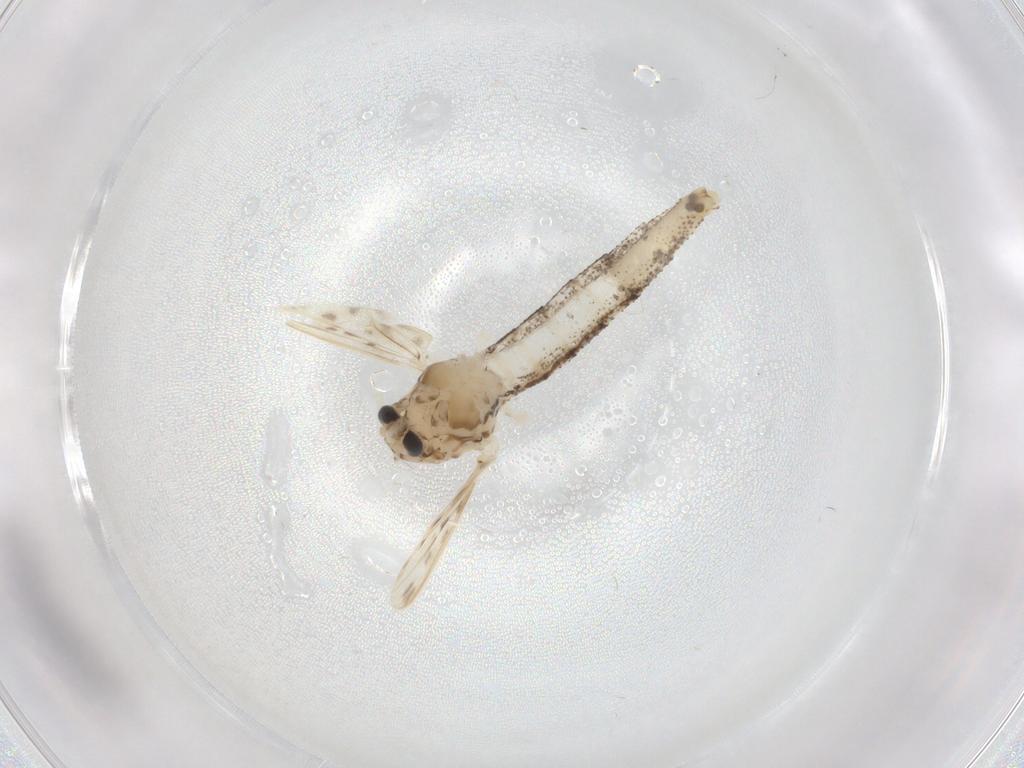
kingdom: Animalia
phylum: Arthropoda
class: Insecta
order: Diptera
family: Chaoboridae
